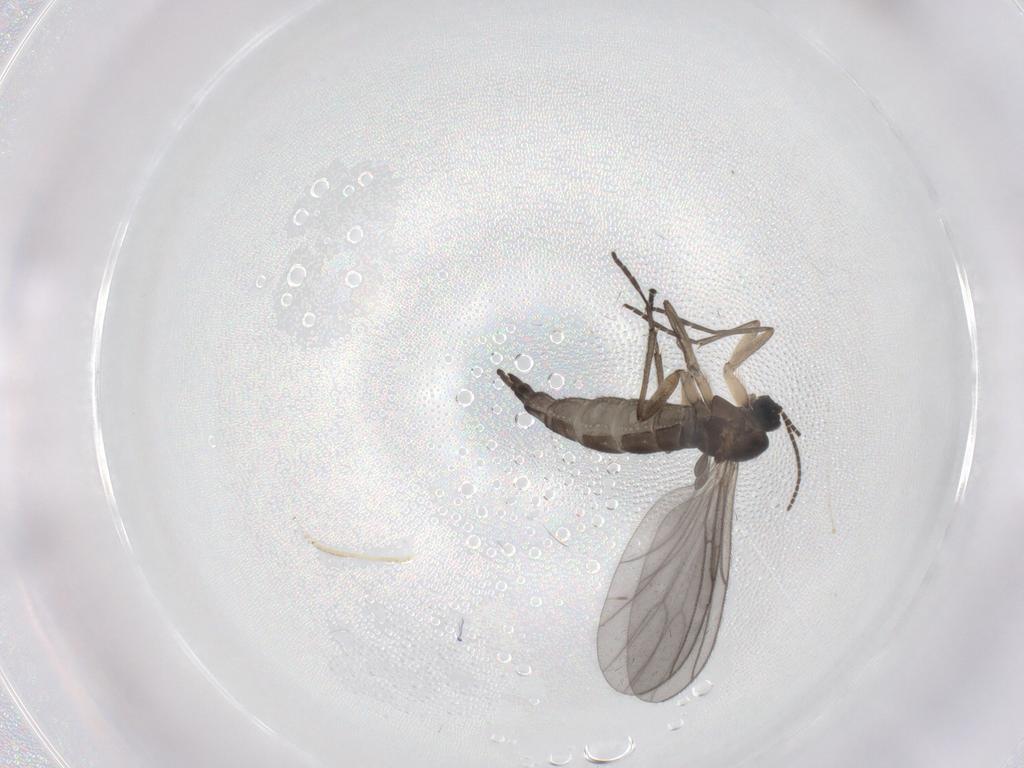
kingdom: Animalia
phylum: Arthropoda
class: Insecta
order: Diptera
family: Sciaridae
